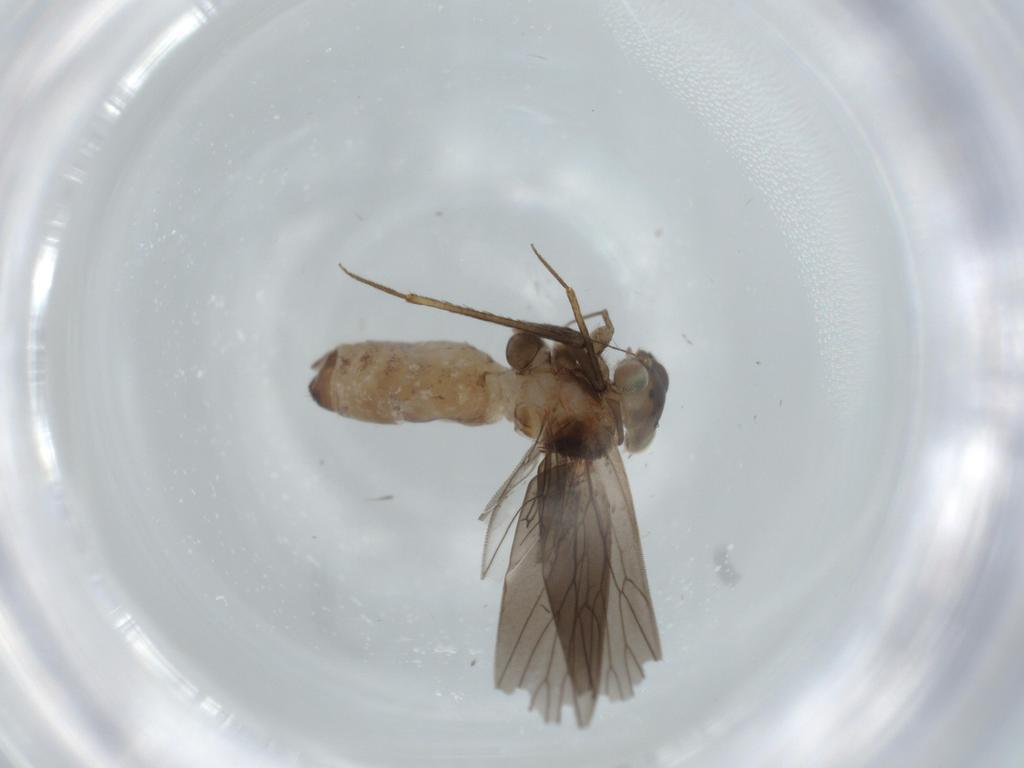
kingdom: Animalia
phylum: Arthropoda
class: Insecta
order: Psocodea
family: Lepidopsocidae
